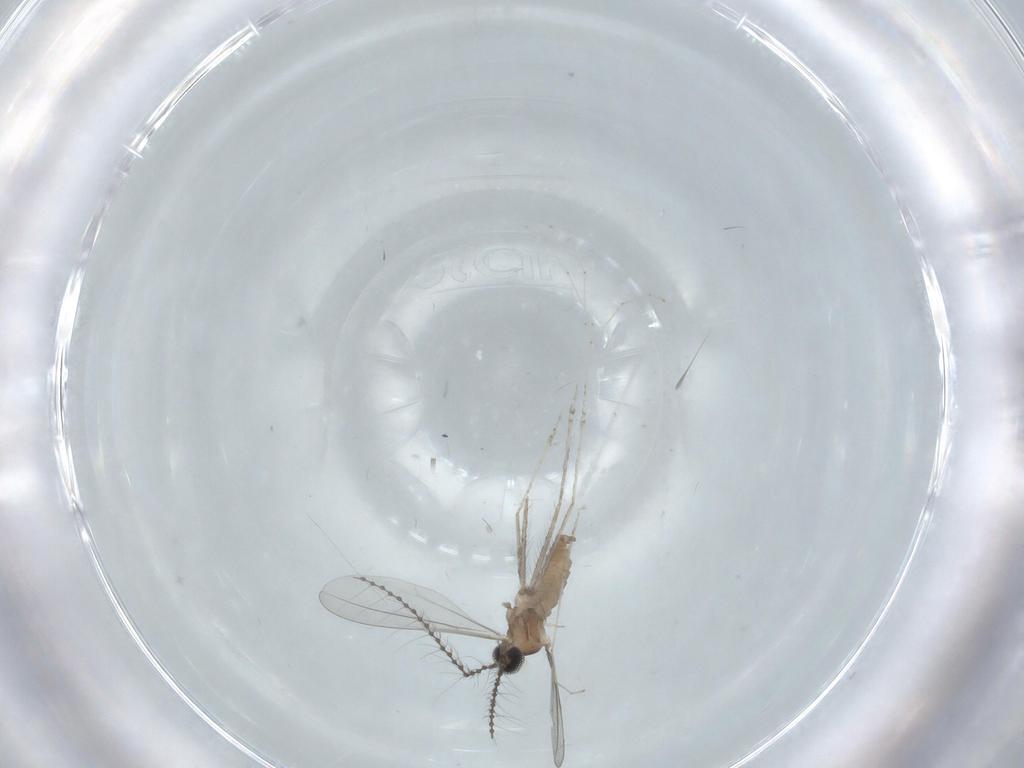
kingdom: Animalia
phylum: Arthropoda
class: Insecta
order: Diptera
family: Cecidomyiidae
